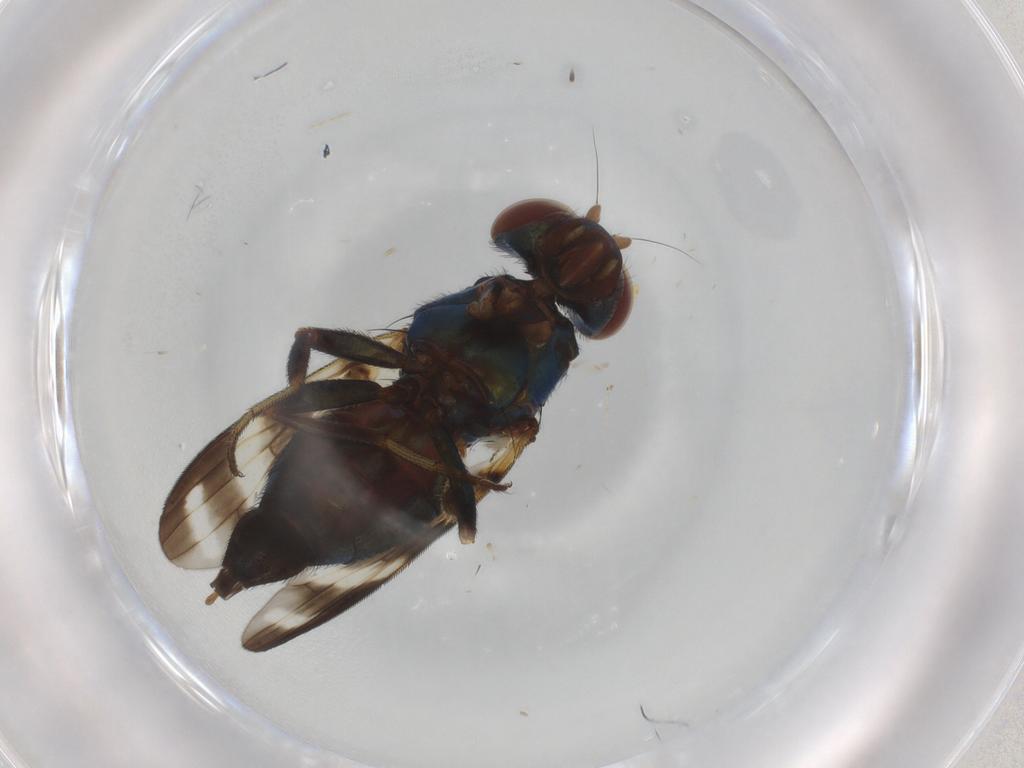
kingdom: Animalia
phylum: Arthropoda
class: Insecta
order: Diptera
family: Ulidiidae
